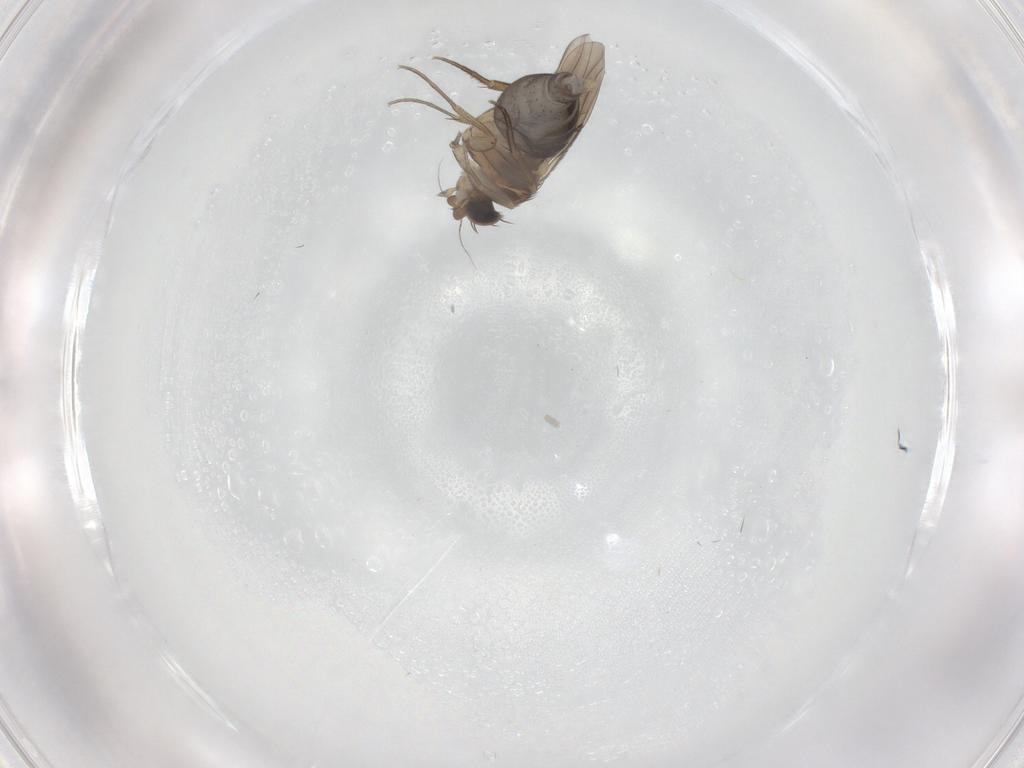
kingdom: Animalia
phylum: Arthropoda
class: Insecta
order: Diptera
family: Phoridae
